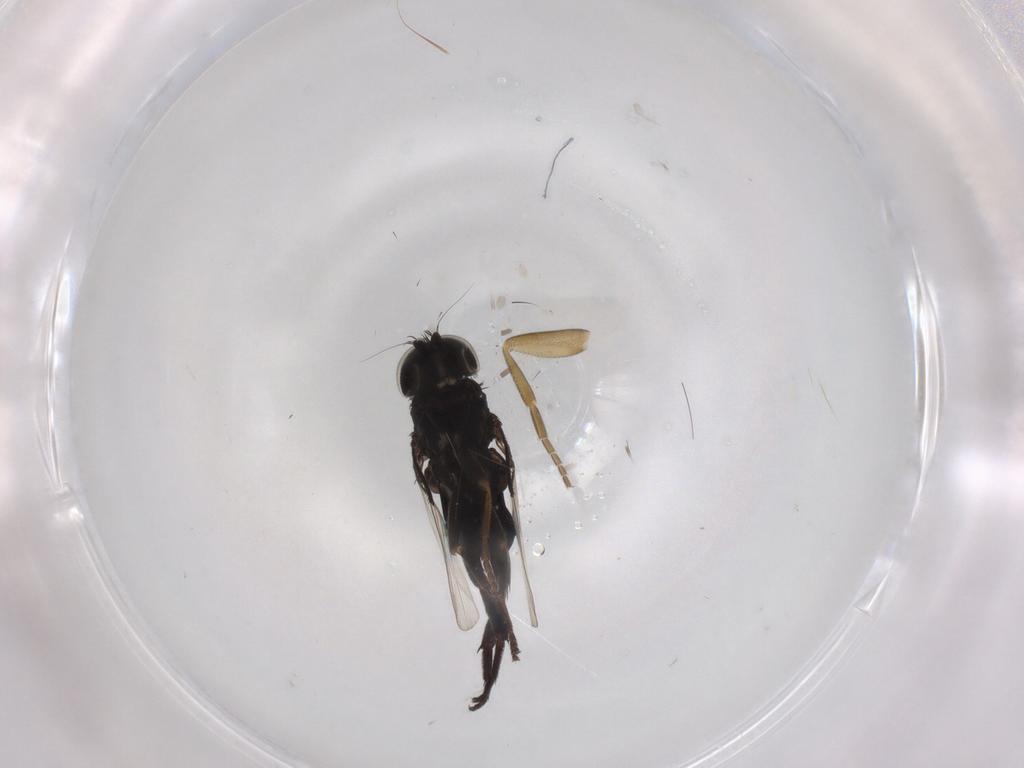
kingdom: Animalia
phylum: Arthropoda
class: Insecta
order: Diptera
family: Phoridae
